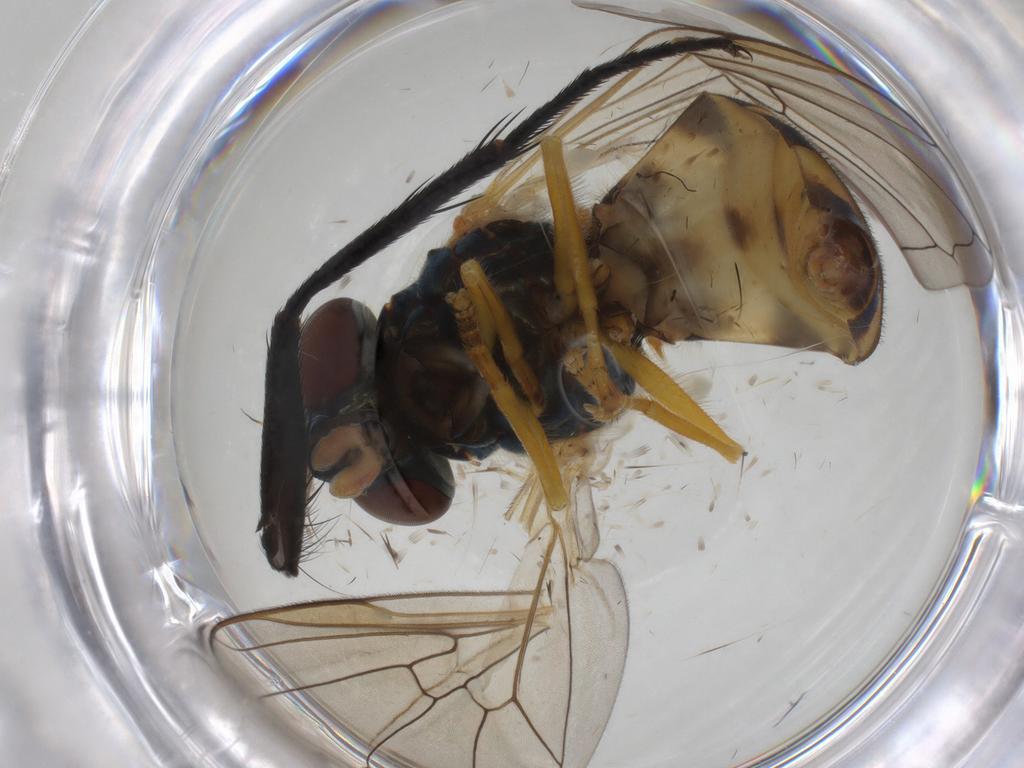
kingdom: Animalia
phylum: Arthropoda
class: Insecta
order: Diptera
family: Syrphidae
